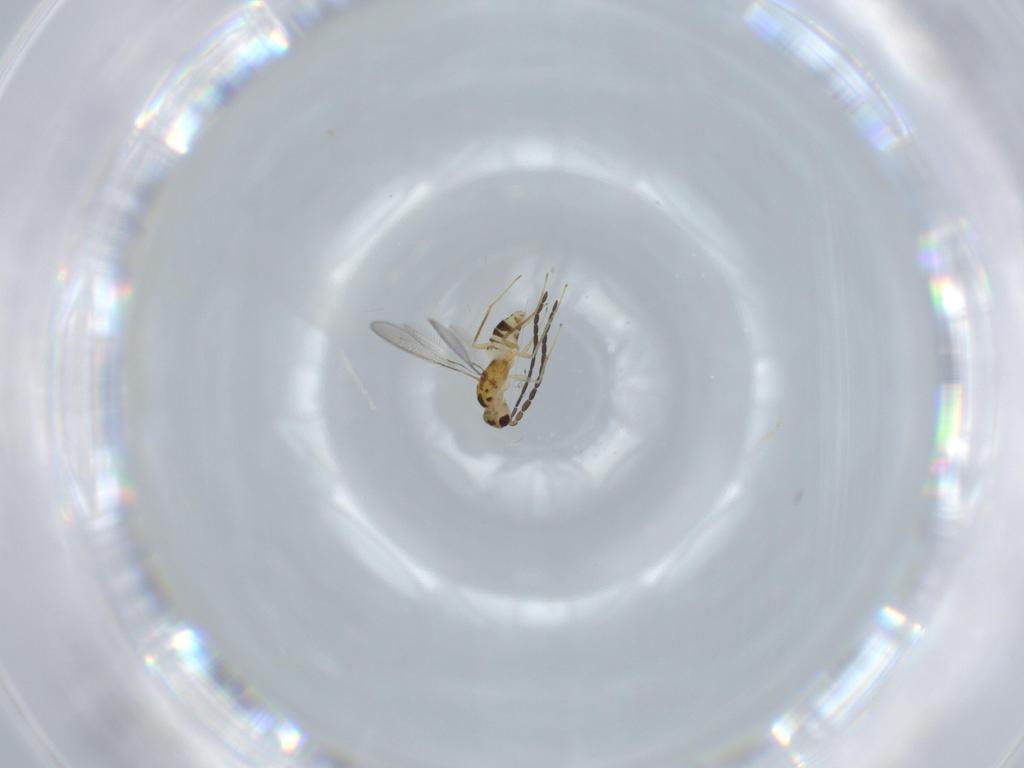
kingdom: Animalia
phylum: Arthropoda
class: Insecta
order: Hymenoptera
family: Mymaridae
